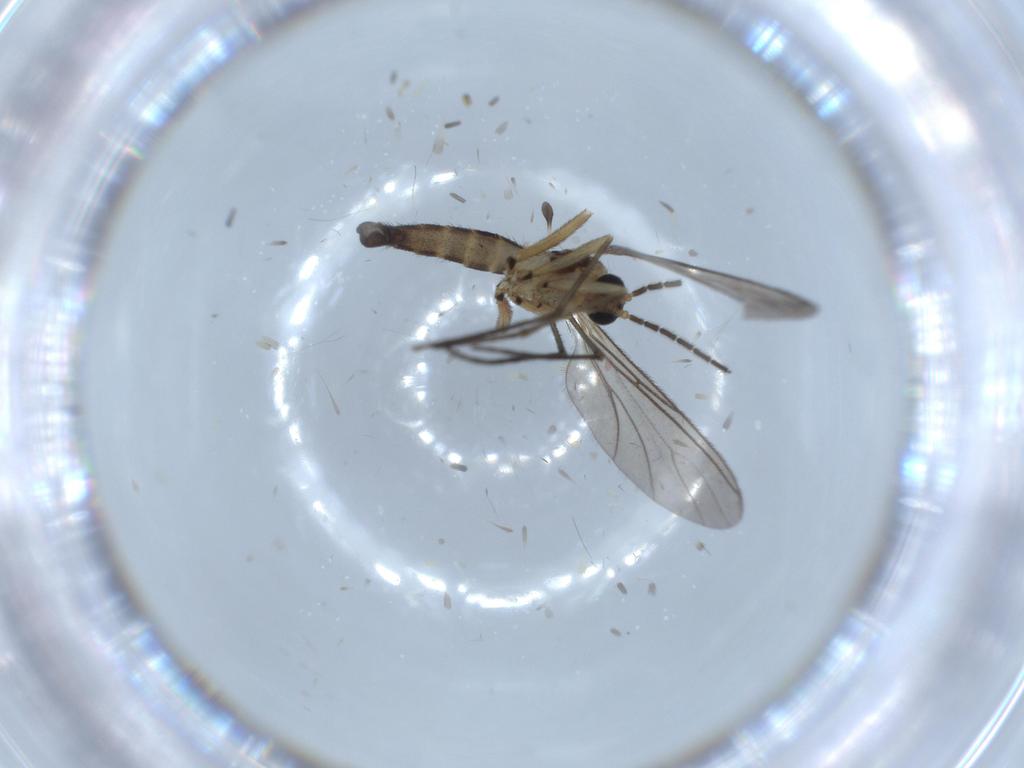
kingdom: Animalia
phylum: Arthropoda
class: Insecta
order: Diptera
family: Sciaridae
